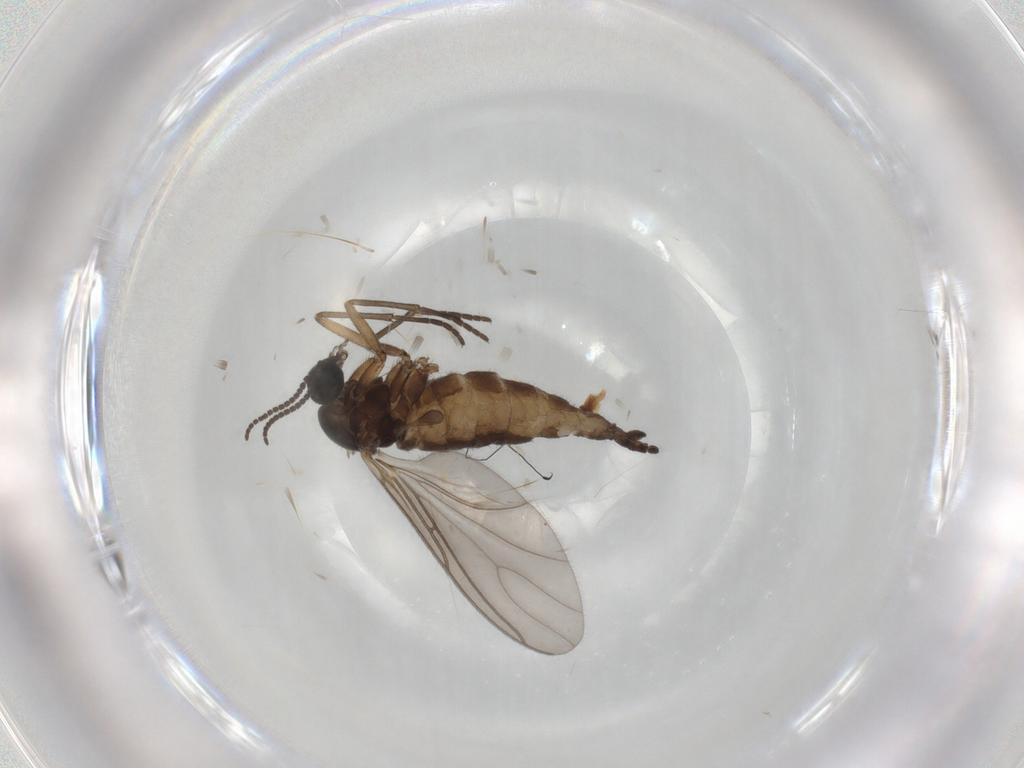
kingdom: Animalia
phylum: Arthropoda
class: Insecta
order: Diptera
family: Sciaridae
